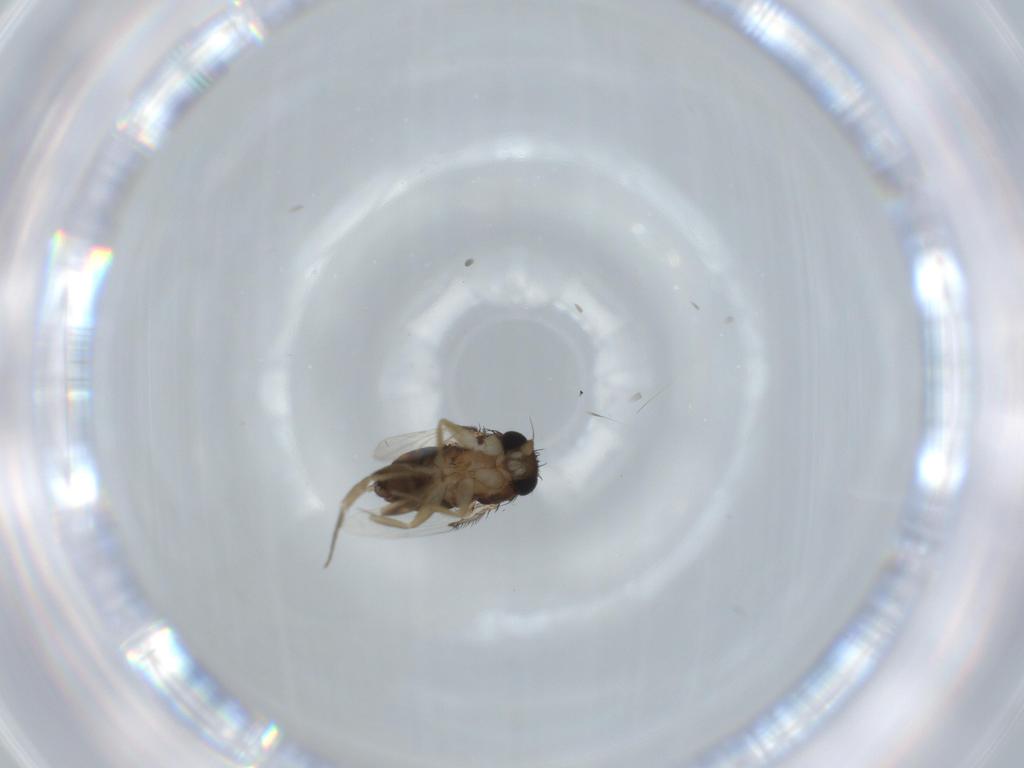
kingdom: Animalia
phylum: Arthropoda
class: Insecta
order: Diptera
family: Phoridae
